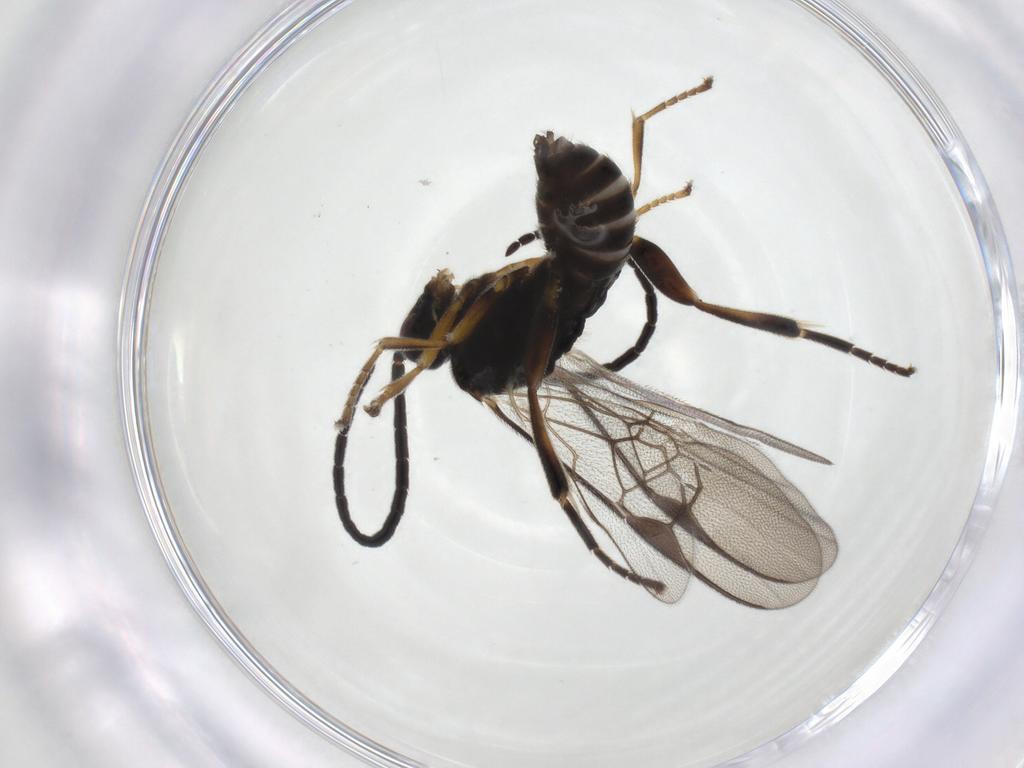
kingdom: Animalia
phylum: Arthropoda
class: Insecta
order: Hymenoptera
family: Braconidae
